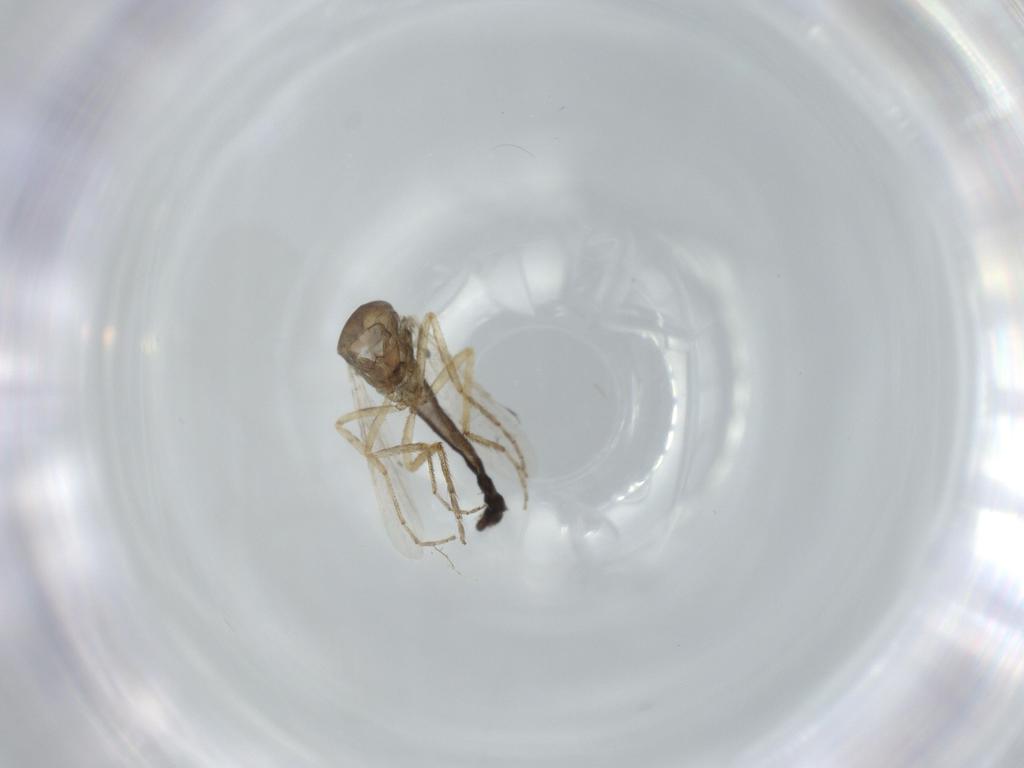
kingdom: Animalia
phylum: Arthropoda
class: Insecta
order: Diptera
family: Ceratopogonidae
